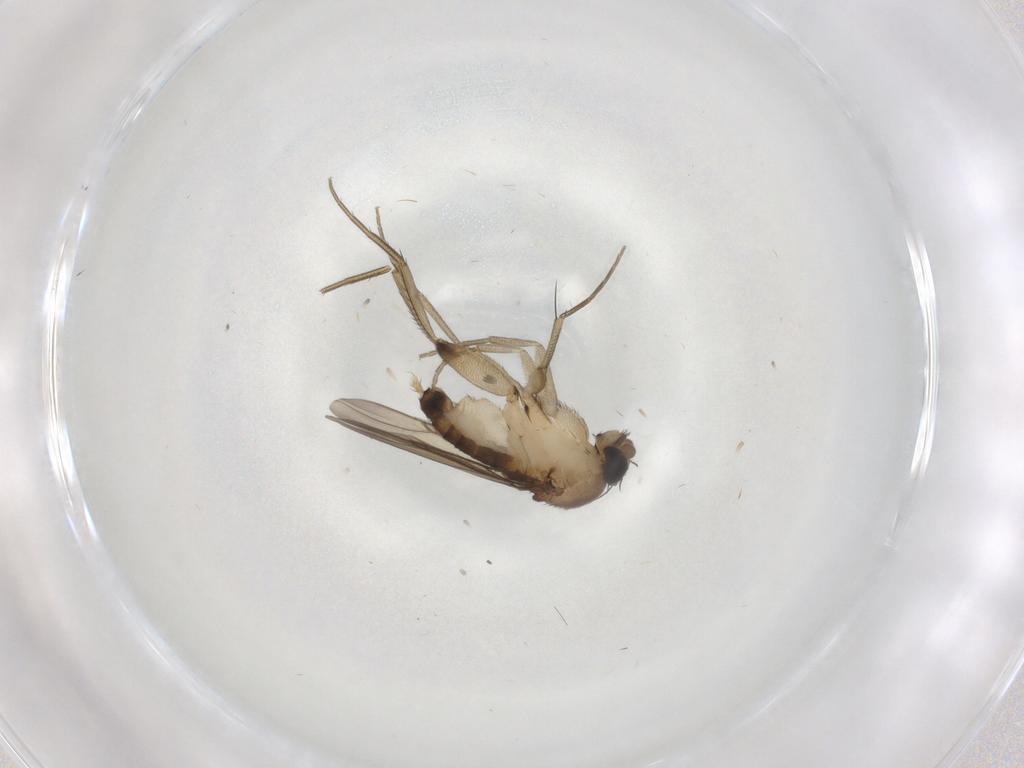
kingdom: Animalia
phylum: Arthropoda
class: Insecta
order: Diptera
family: Phoridae
